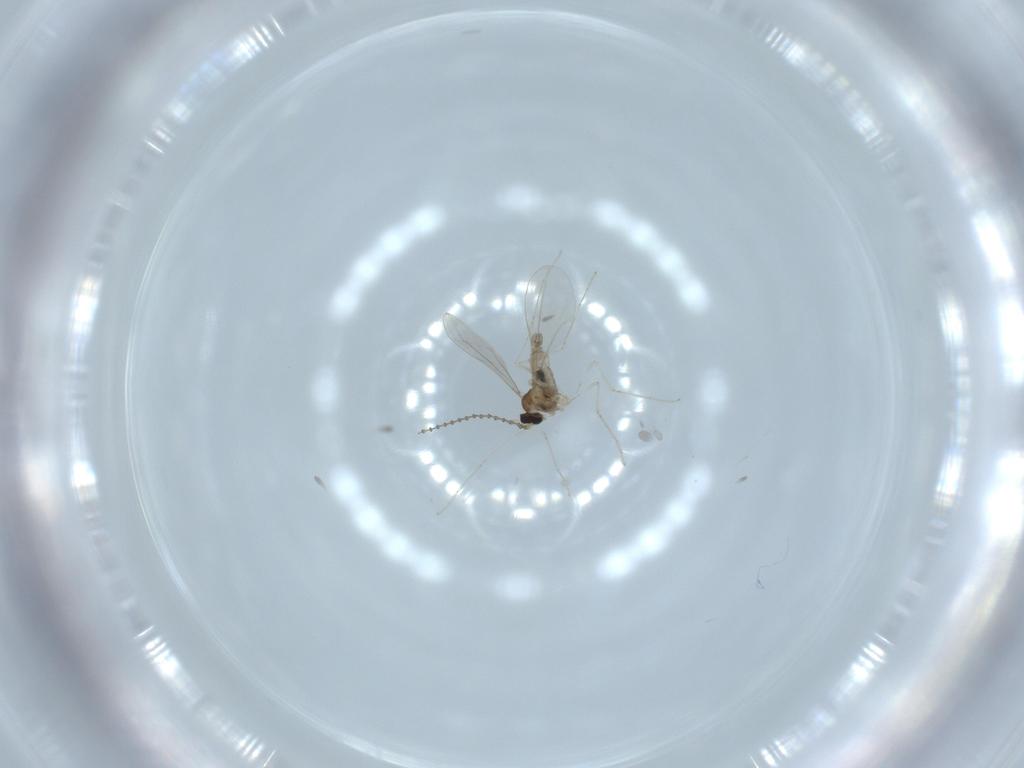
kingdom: Animalia
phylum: Arthropoda
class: Insecta
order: Diptera
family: Cecidomyiidae
